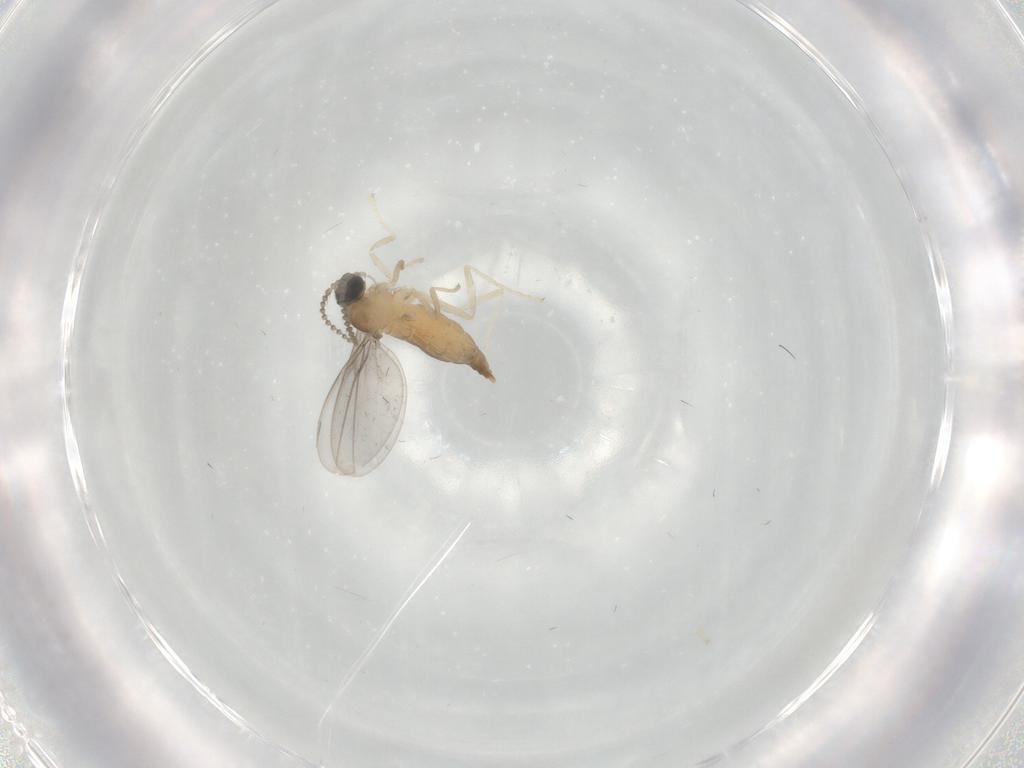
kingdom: Animalia
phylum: Arthropoda
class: Insecta
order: Diptera
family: Cecidomyiidae
